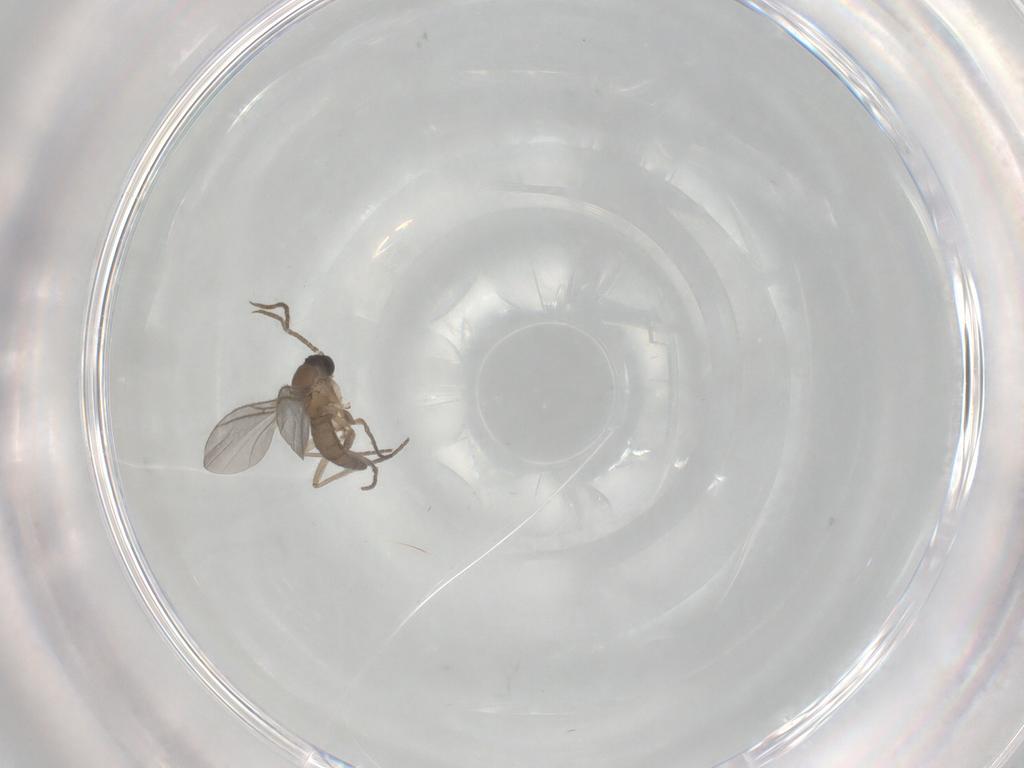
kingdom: Animalia
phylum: Arthropoda
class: Insecta
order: Diptera
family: Sciaridae
